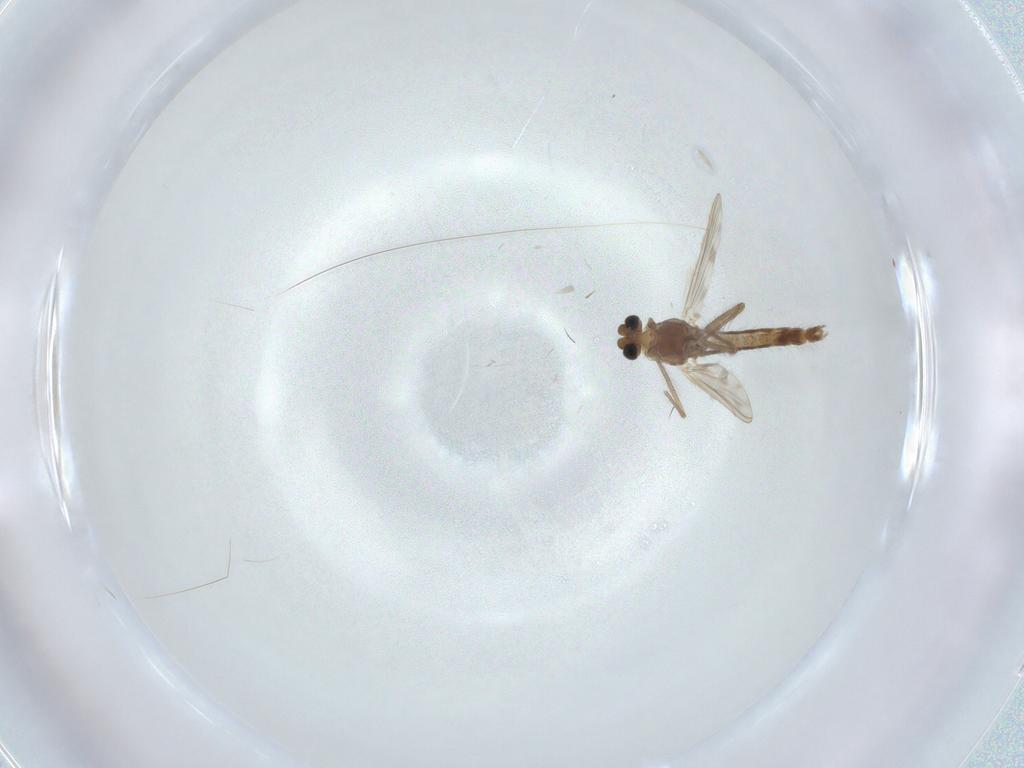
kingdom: Animalia
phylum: Arthropoda
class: Insecta
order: Diptera
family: Chironomidae
